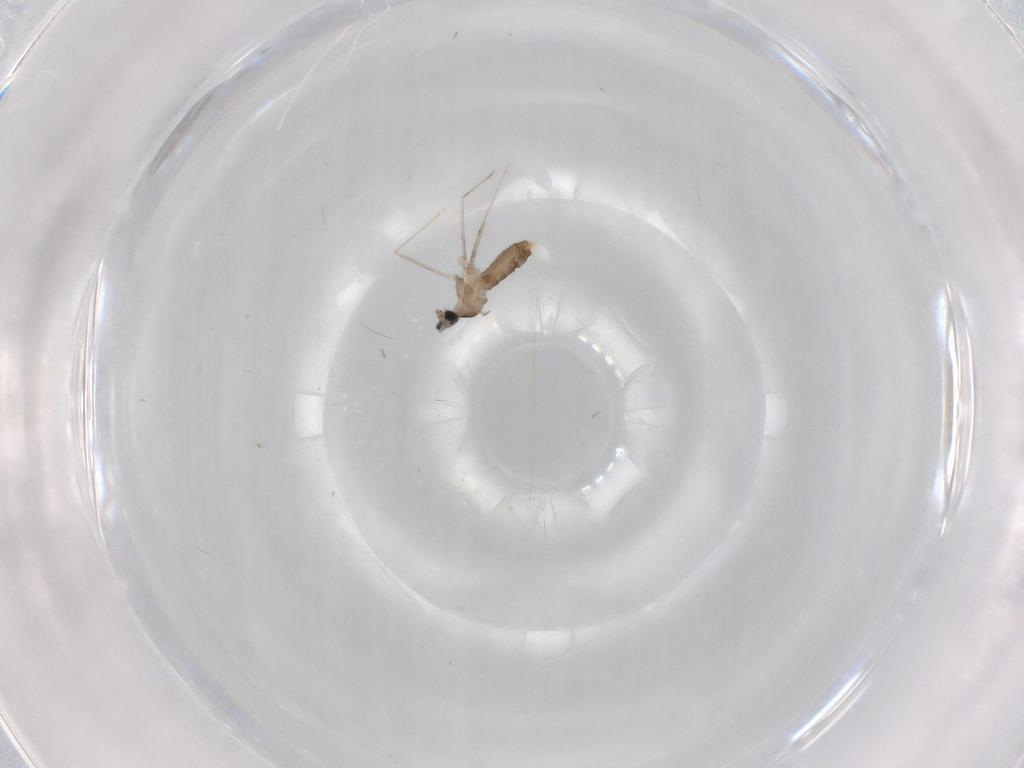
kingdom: Animalia
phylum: Arthropoda
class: Insecta
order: Diptera
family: Cecidomyiidae
